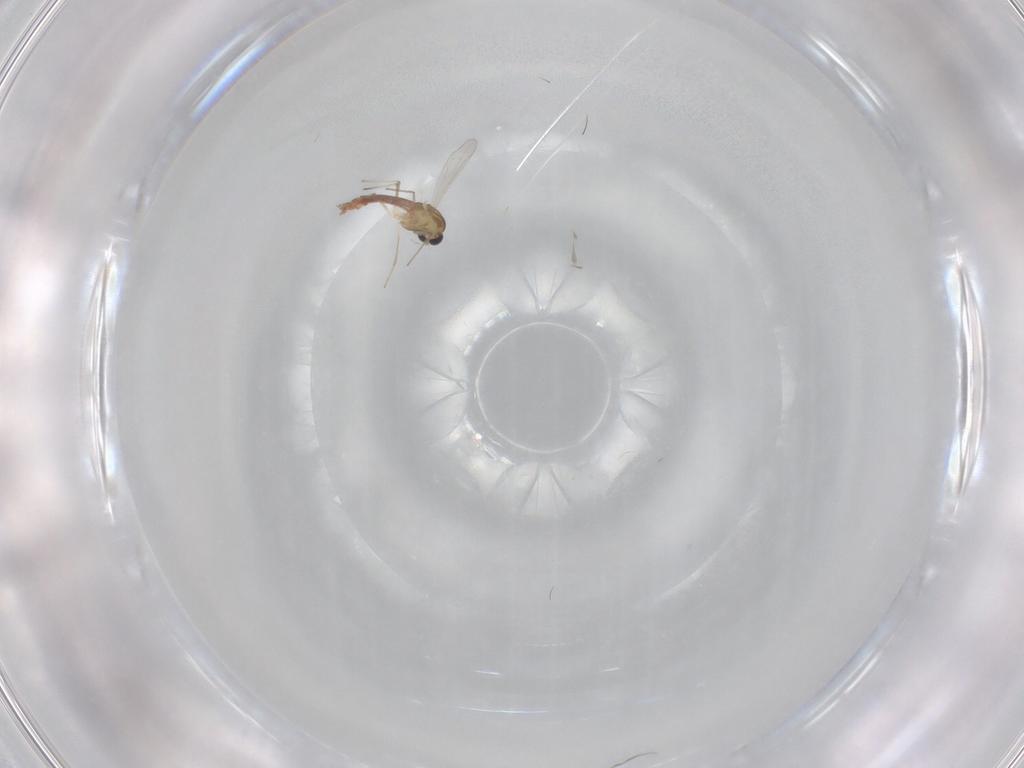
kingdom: Animalia
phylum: Arthropoda
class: Insecta
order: Diptera
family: Chironomidae
